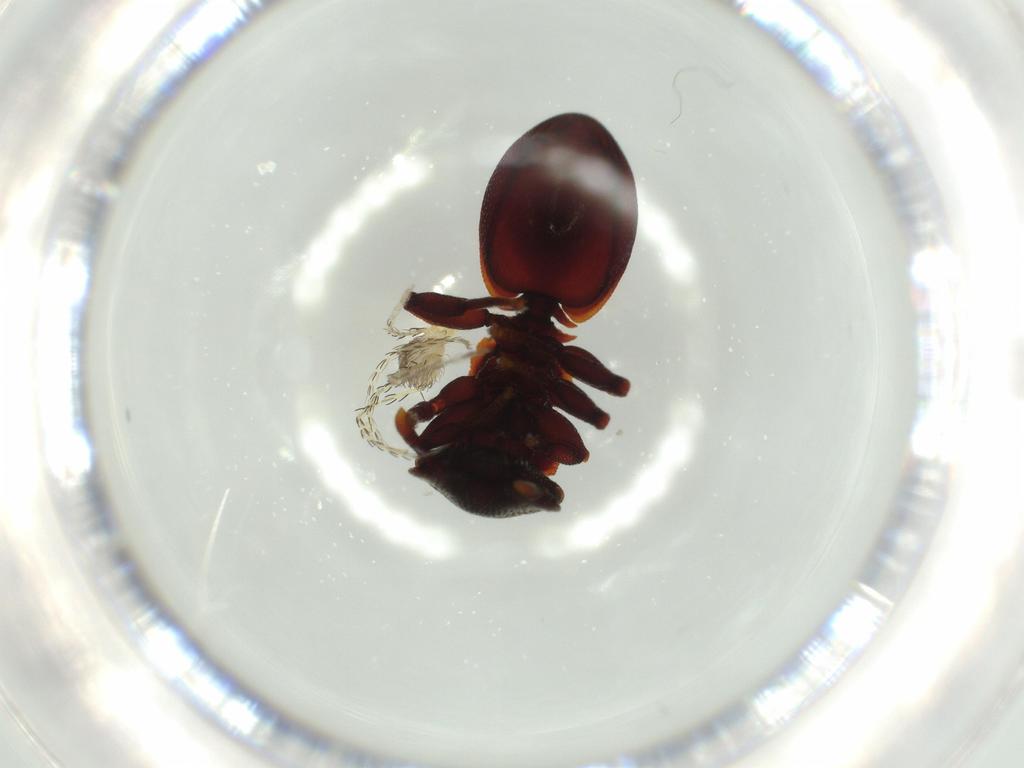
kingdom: Animalia
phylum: Arthropoda
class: Insecta
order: Hymenoptera
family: Formicidae
